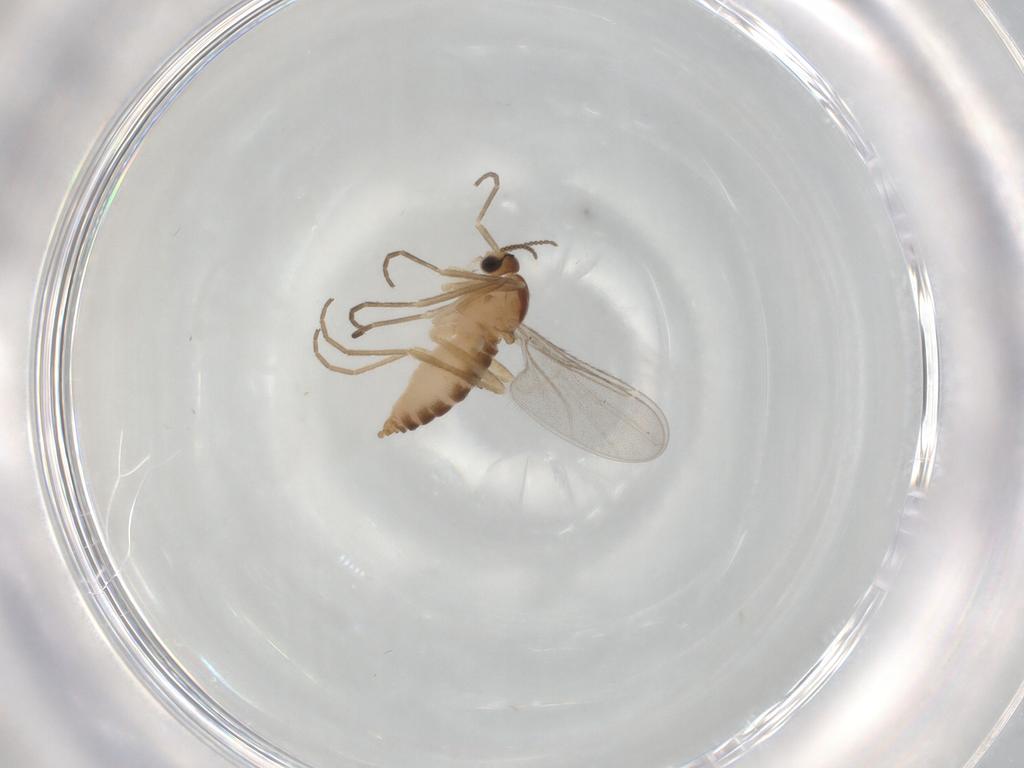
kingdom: Animalia
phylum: Arthropoda
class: Insecta
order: Diptera
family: Cecidomyiidae
